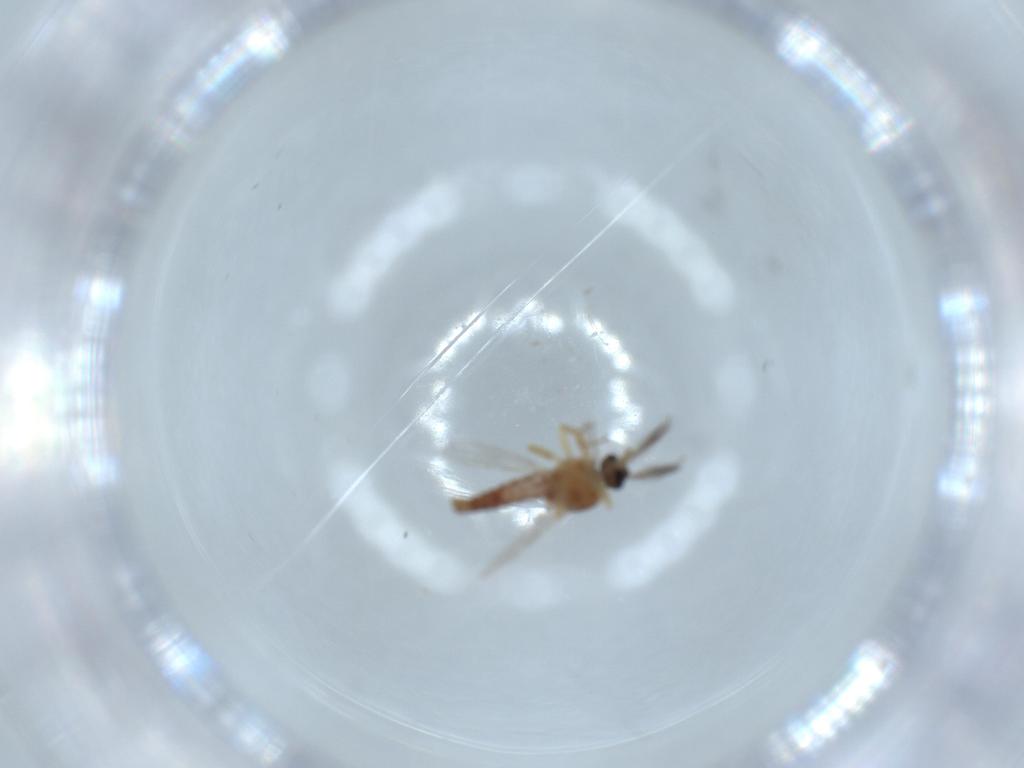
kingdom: Animalia
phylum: Arthropoda
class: Insecta
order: Diptera
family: Ceratopogonidae
